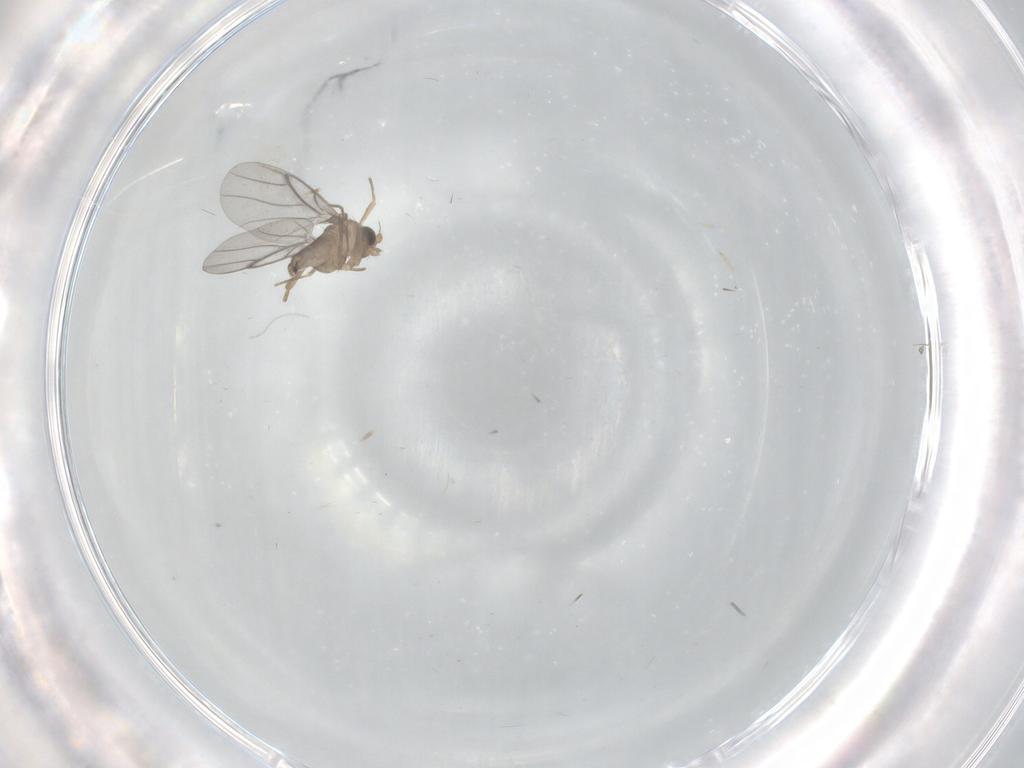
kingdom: Animalia
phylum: Arthropoda
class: Insecta
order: Diptera
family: Cecidomyiidae
